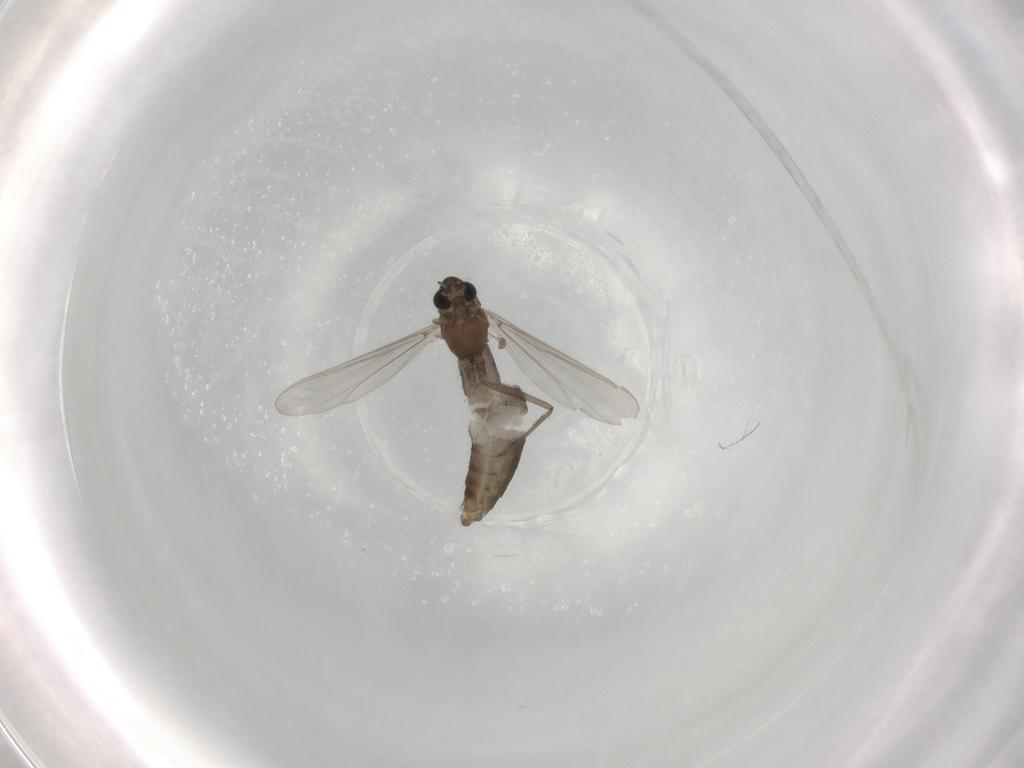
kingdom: Animalia
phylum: Arthropoda
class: Insecta
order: Diptera
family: Chironomidae
